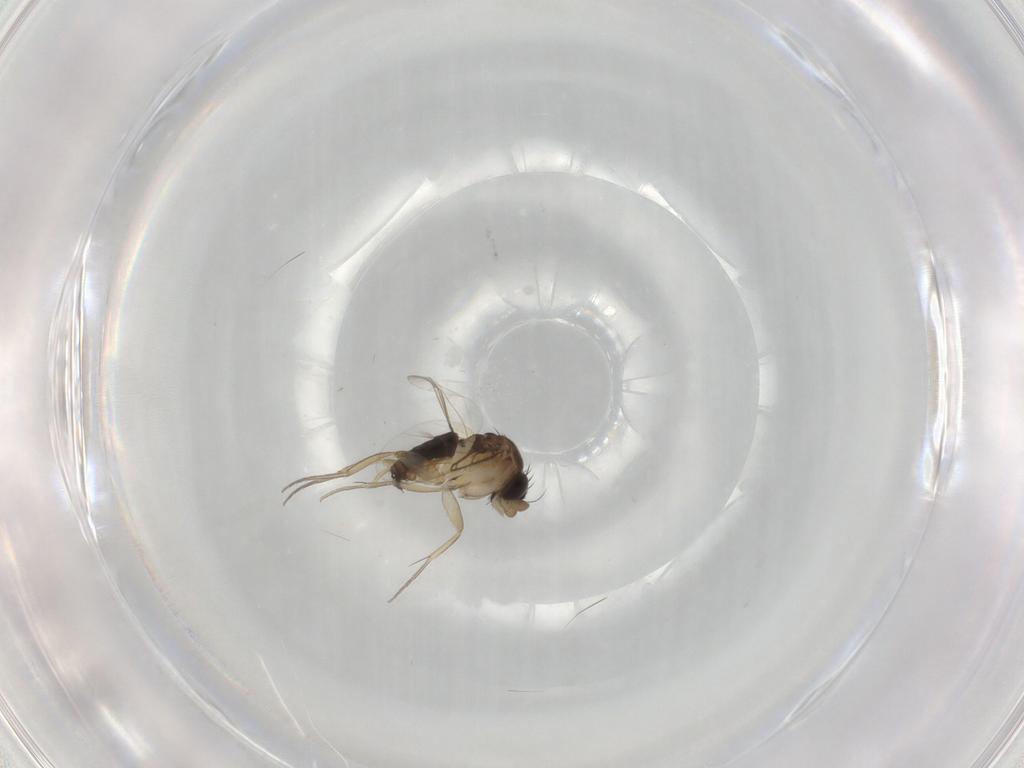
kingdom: Animalia
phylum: Arthropoda
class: Insecta
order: Diptera
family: Phoridae
